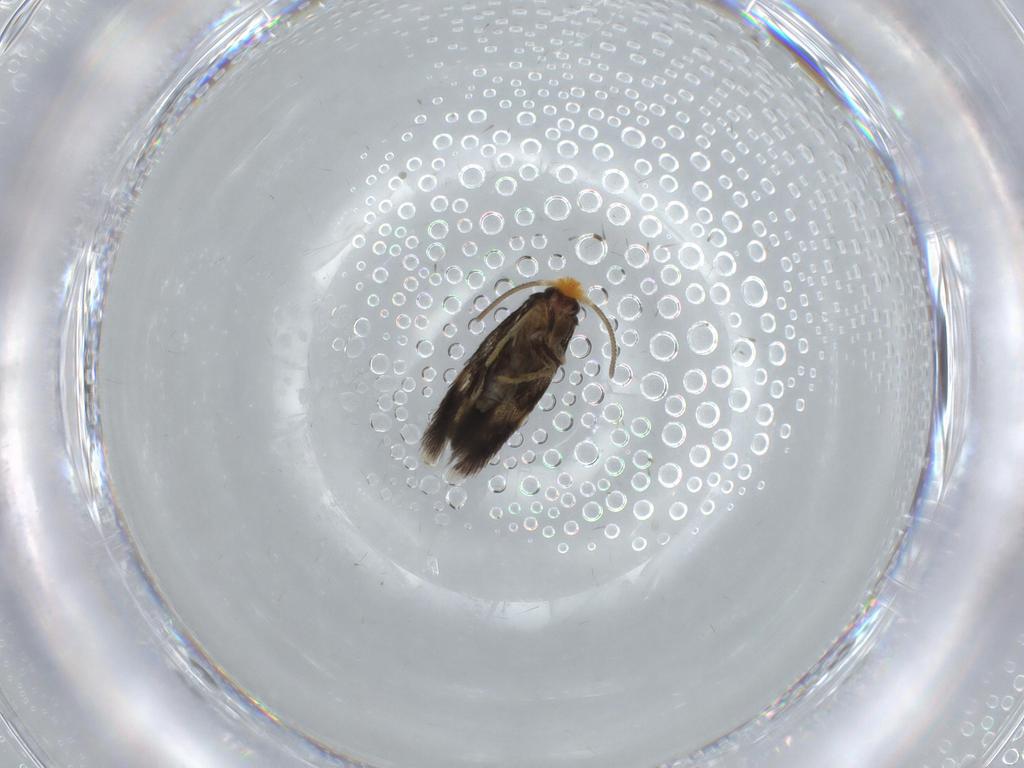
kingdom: Animalia
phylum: Arthropoda
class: Insecta
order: Lepidoptera
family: Nepticulidae
